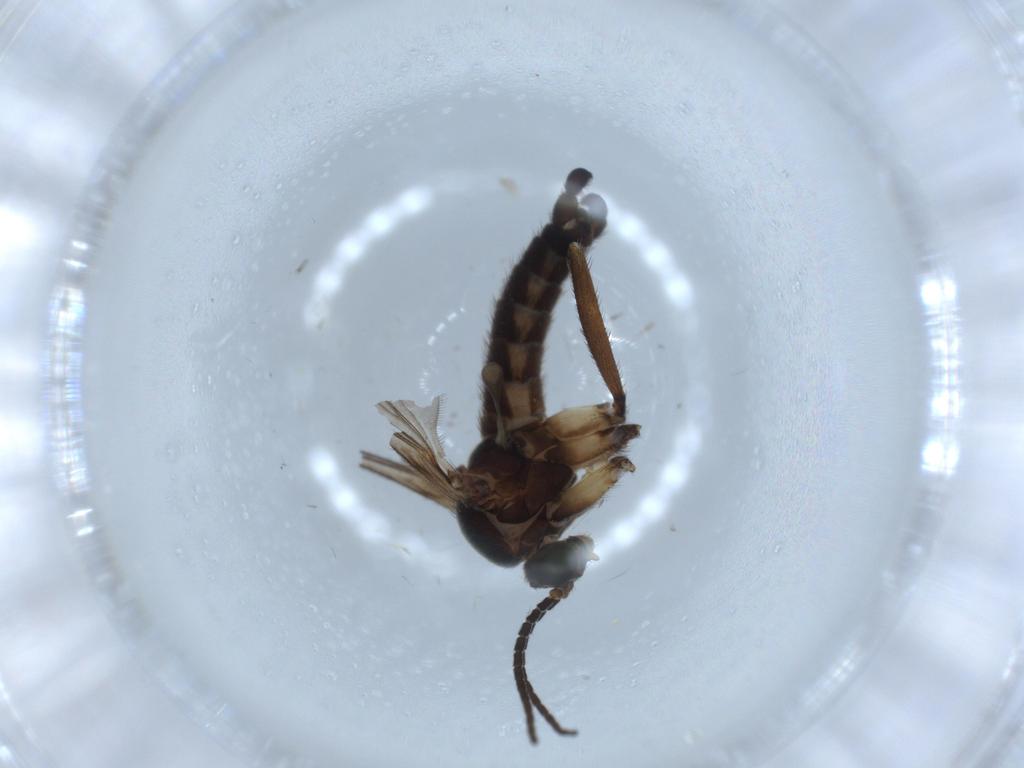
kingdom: Animalia
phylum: Arthropoda
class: Insecta
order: Diptera
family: Sciaridae
